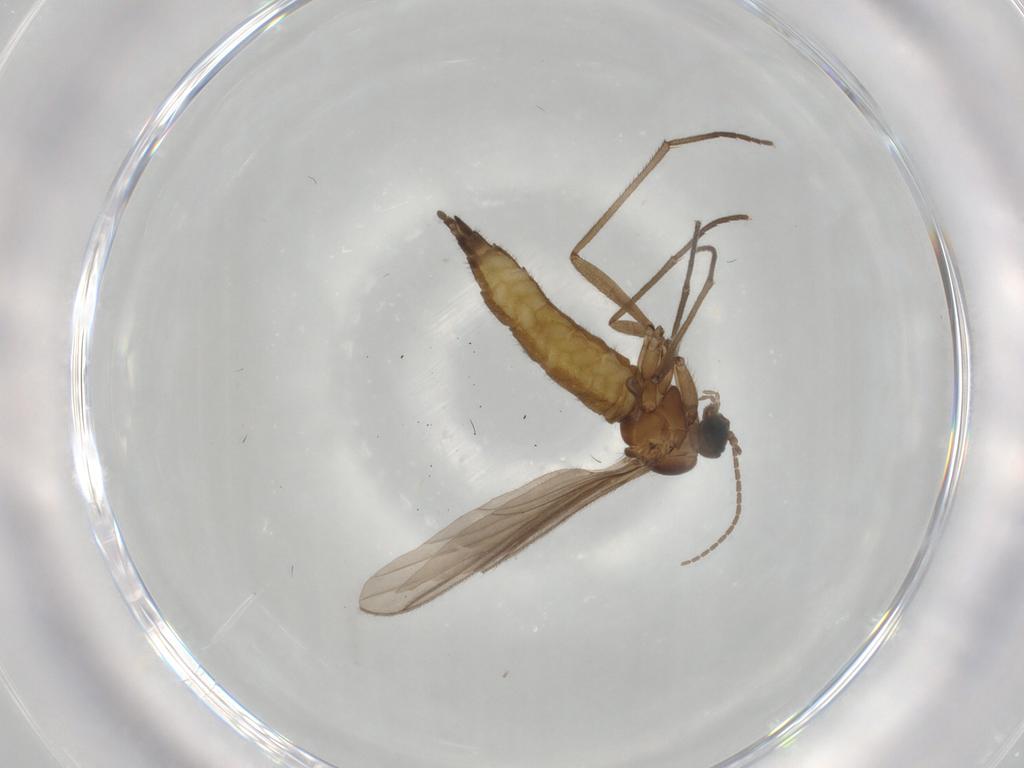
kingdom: Animalia
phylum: Arthropoda
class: Insecta
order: Diptera
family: Sciaridae
